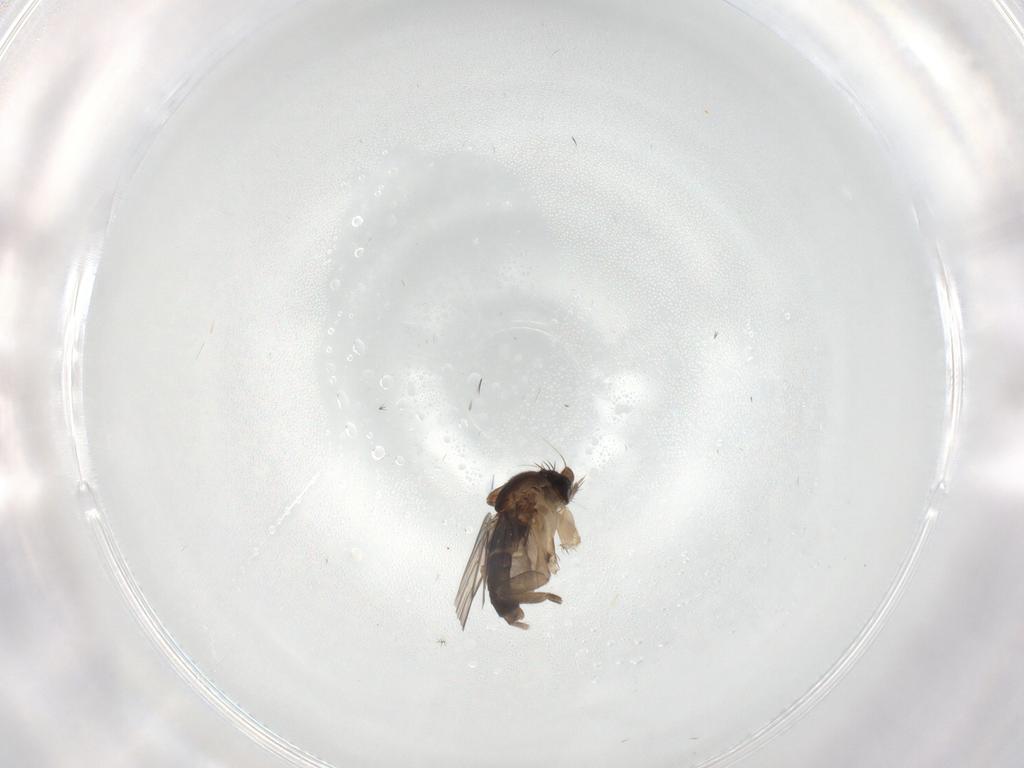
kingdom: Animalia
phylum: Arthropoda
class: Insecta
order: Diptera
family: Cecidomyiidae
